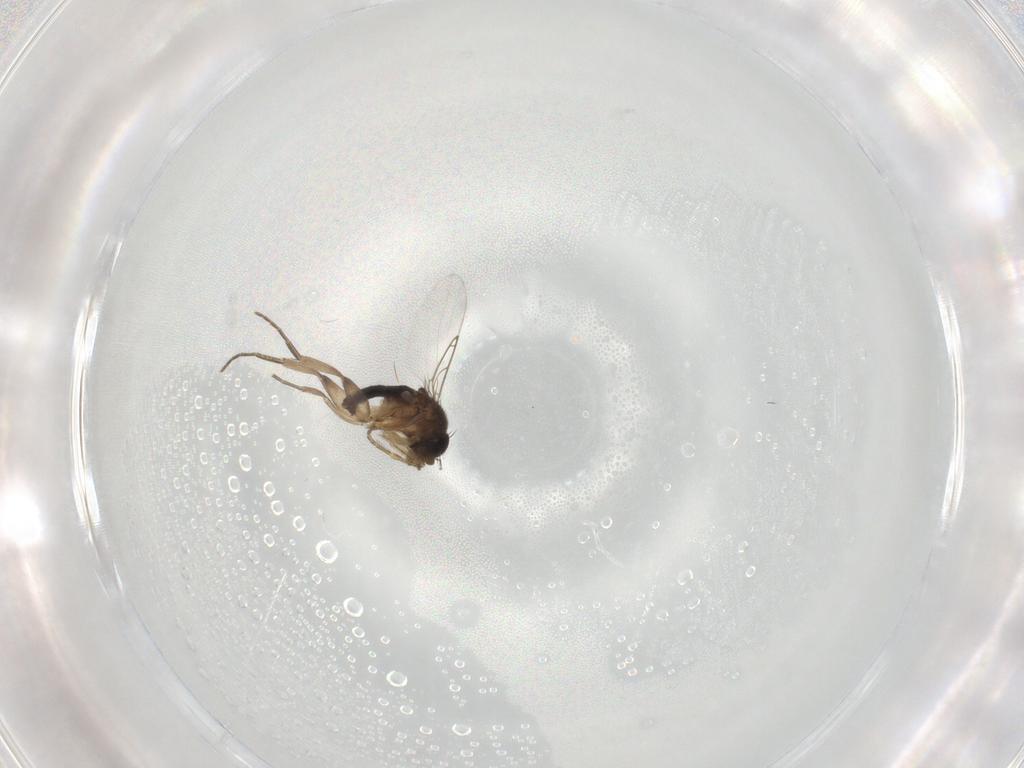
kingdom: Animalia
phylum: Arthropoda
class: Insecta
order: Diptera
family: Phoridae
